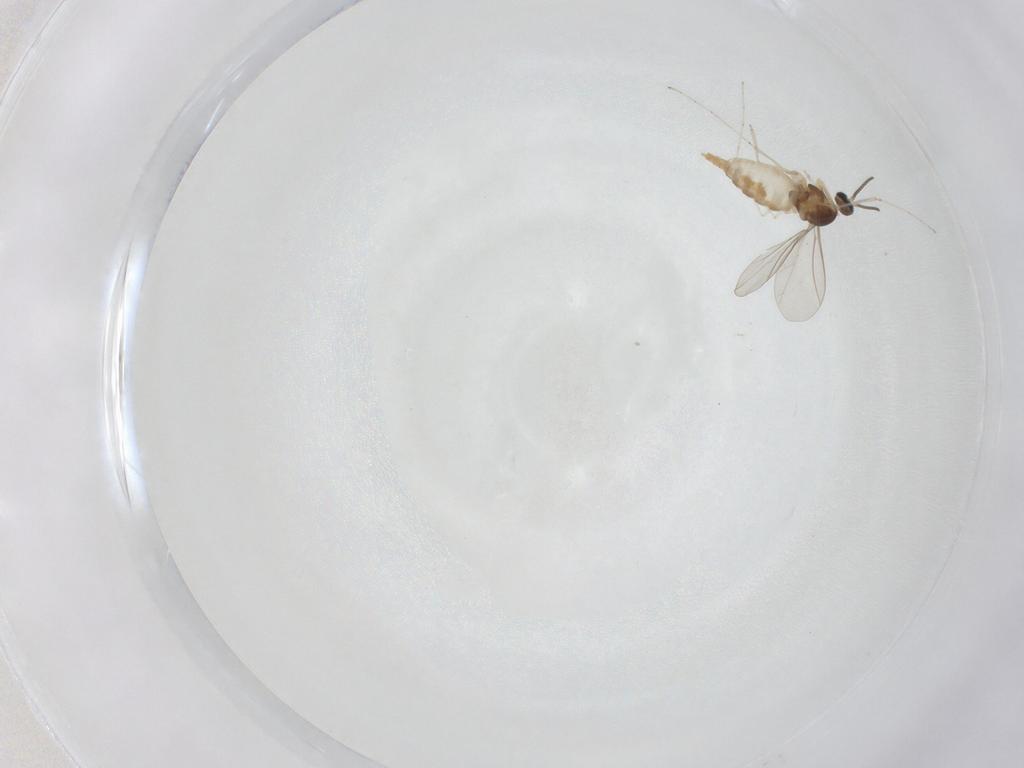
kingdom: Animalia
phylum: Arthropoda
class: Insecta
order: Diptera
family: Cecidomyiidae
